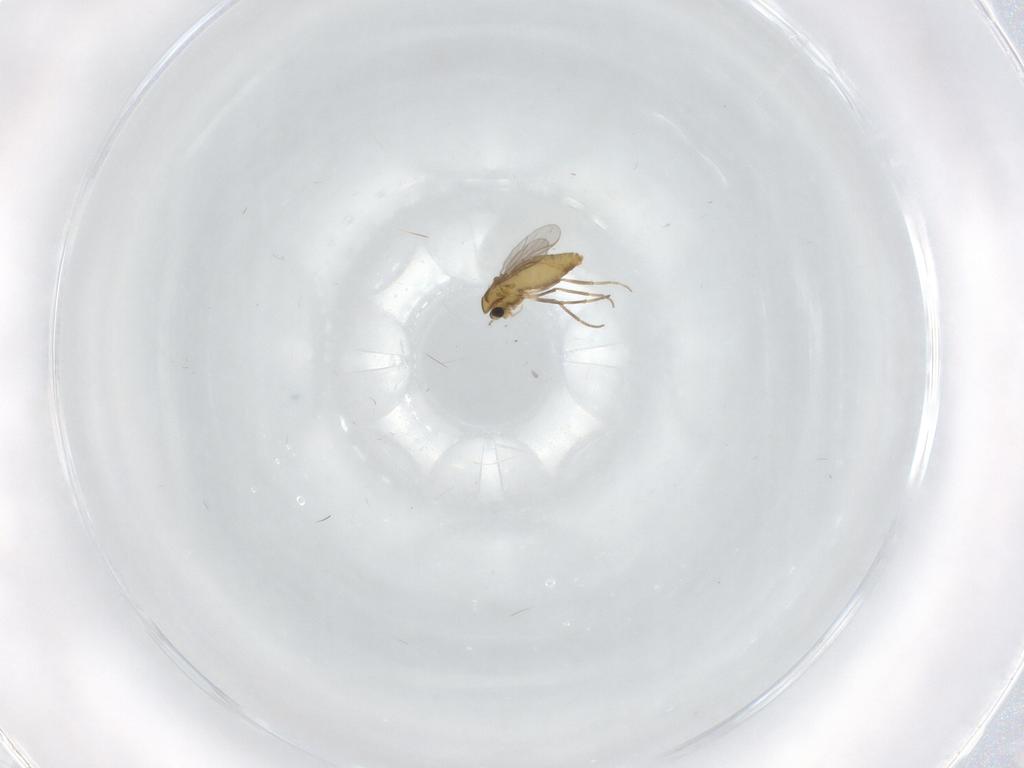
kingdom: Animalia
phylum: Arthropoda
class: Insecta
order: Diptera
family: Chironomidae
